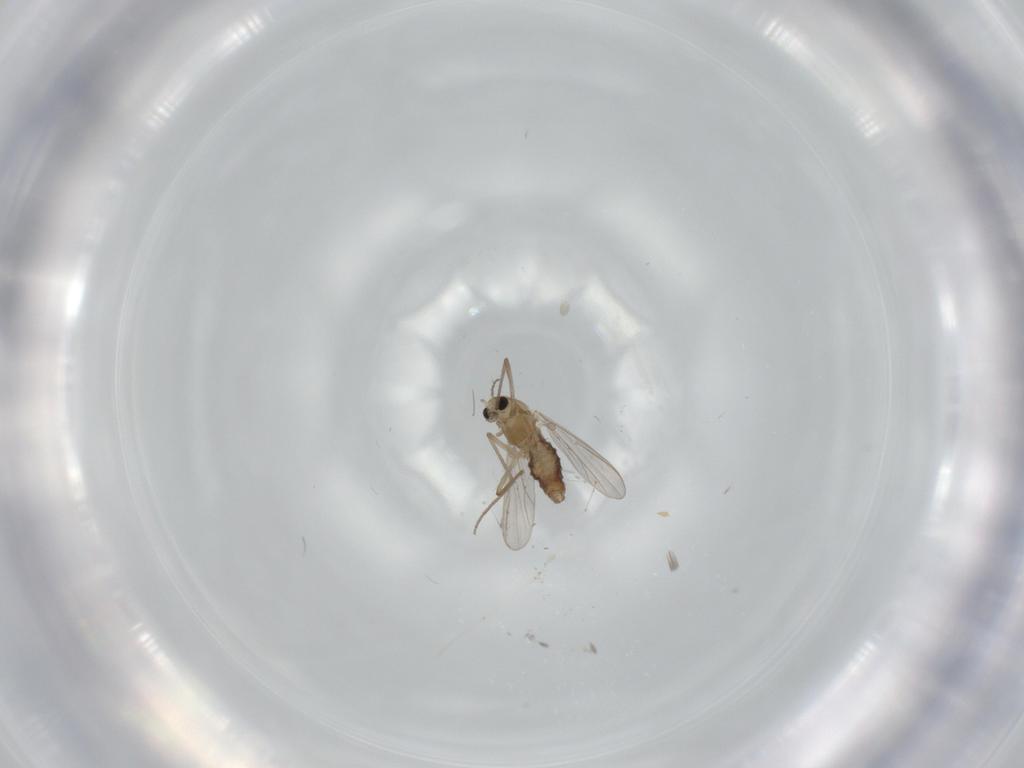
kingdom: Animalia
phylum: Arthropoda
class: Insecta
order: Diptera
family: Chironomidae
